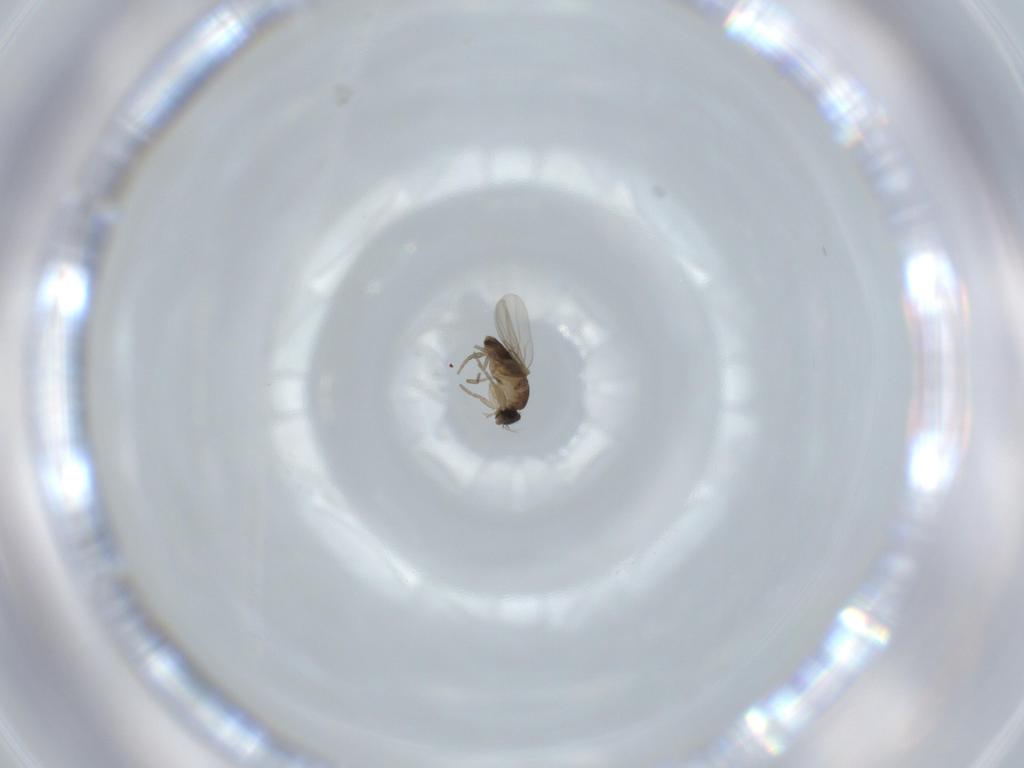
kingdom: Animalia
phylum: Arthropoda
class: Insecta
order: Diptera
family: Phoridae
